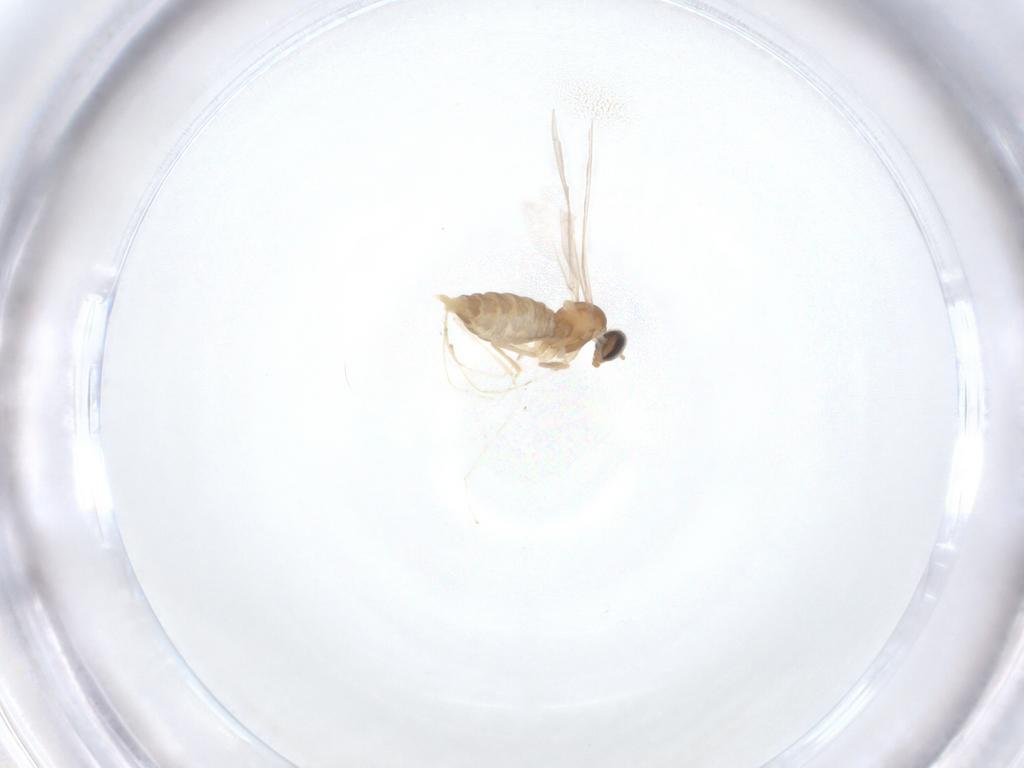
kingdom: Animalia
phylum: Arthropoda
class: Insecta
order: Diptera
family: Cecidomyiidae
